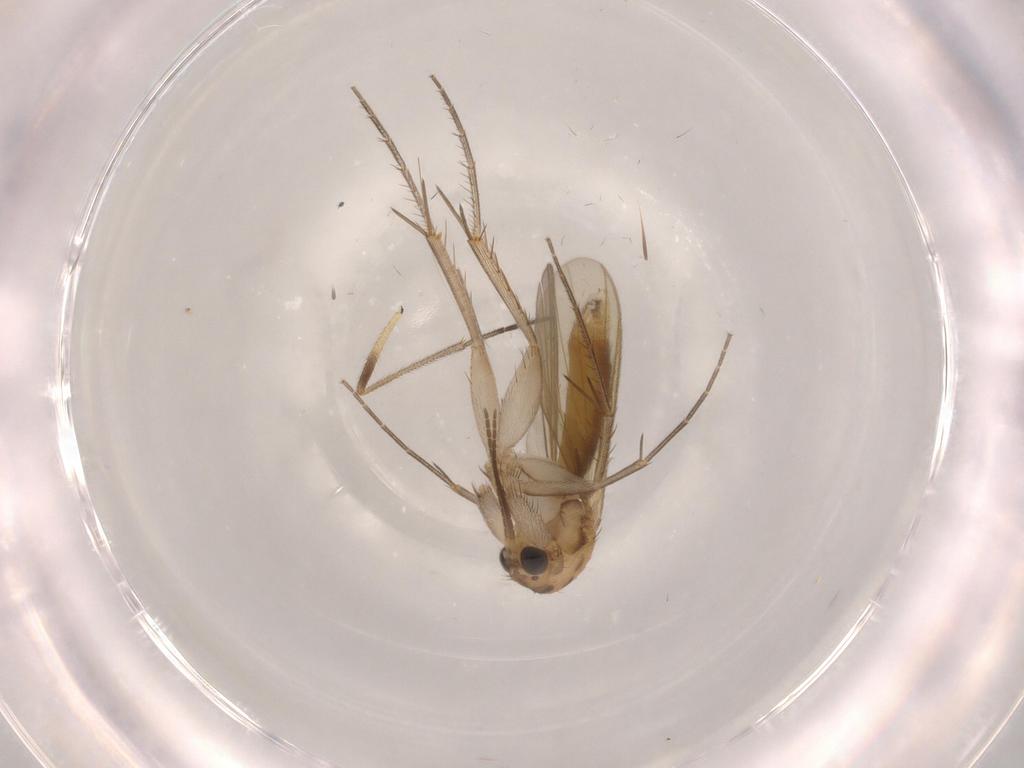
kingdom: Animalia
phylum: Arthropoda
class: Insecta
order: Diptera
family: Mycetophilidae
